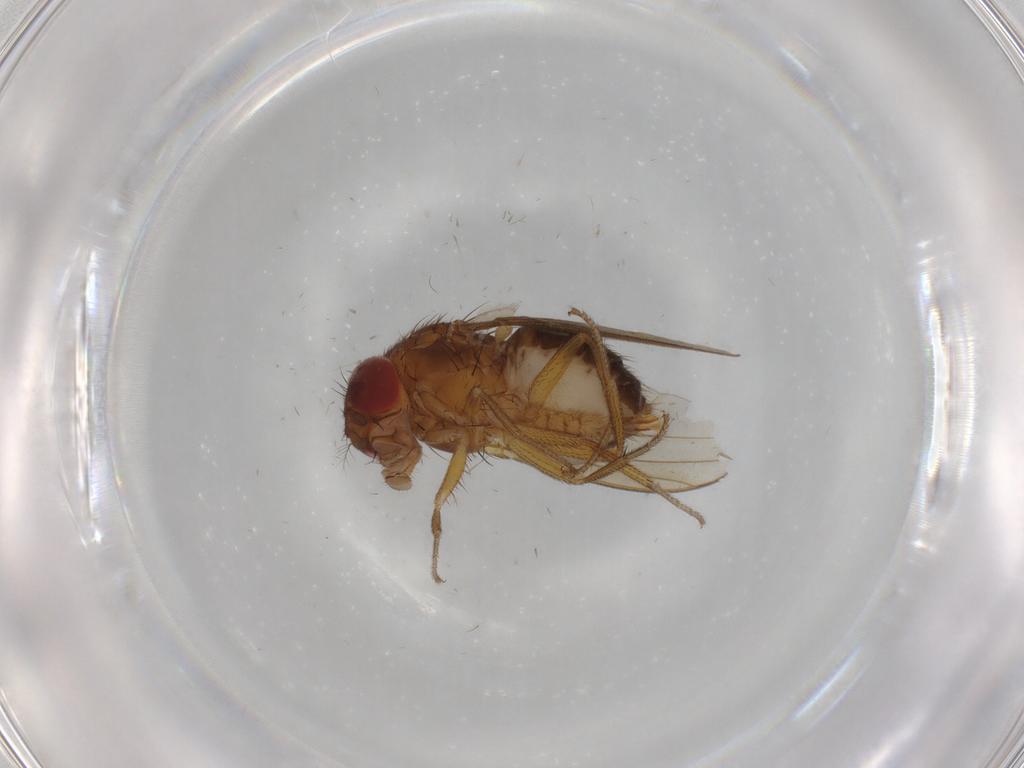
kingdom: Animalia
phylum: Arthropoda
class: Insecta
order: Diptera
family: Drosophilidae
